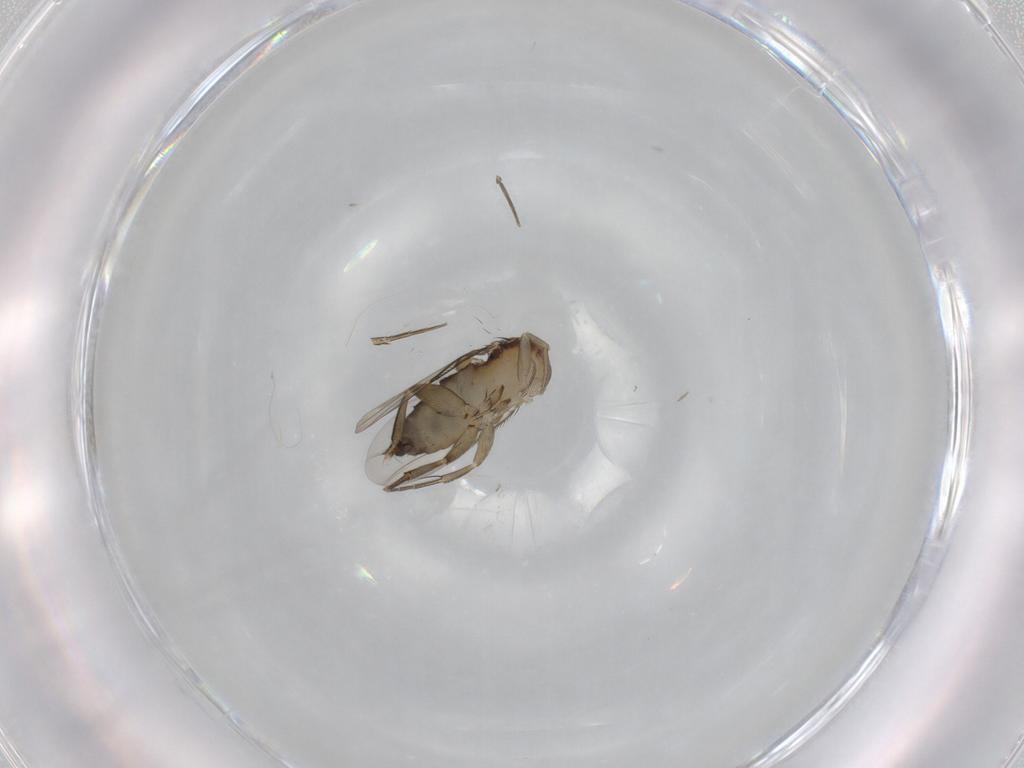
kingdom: Animalia
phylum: Arthropoda
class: Insecta
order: Diptera
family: Phoridae
